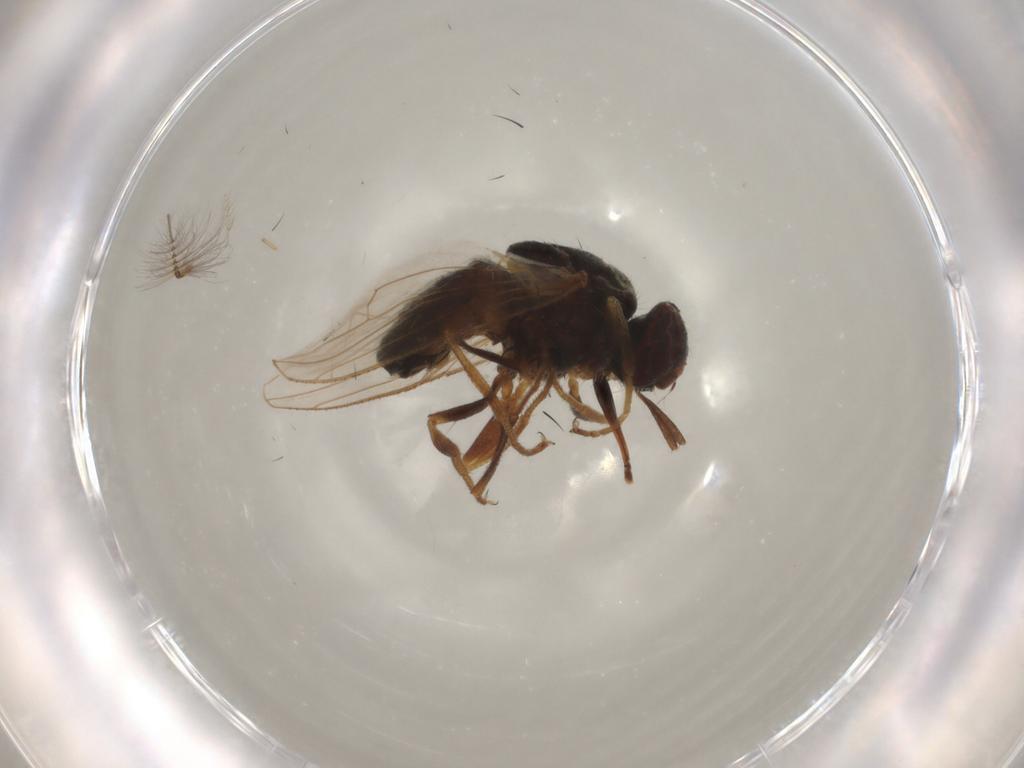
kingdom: Animalia
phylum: Arthropoda
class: Insecta
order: Diptera
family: Muscidae
